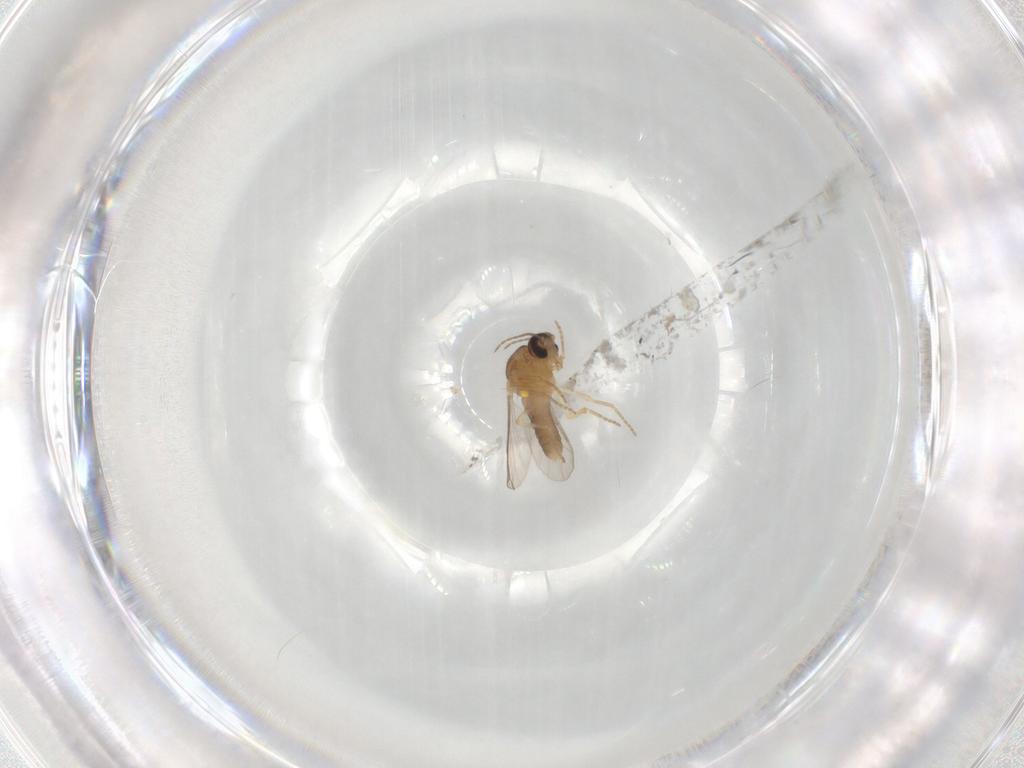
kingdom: Animalia
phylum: Arthropoda
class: Insecta
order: Diptera
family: Ceratopogonidae
